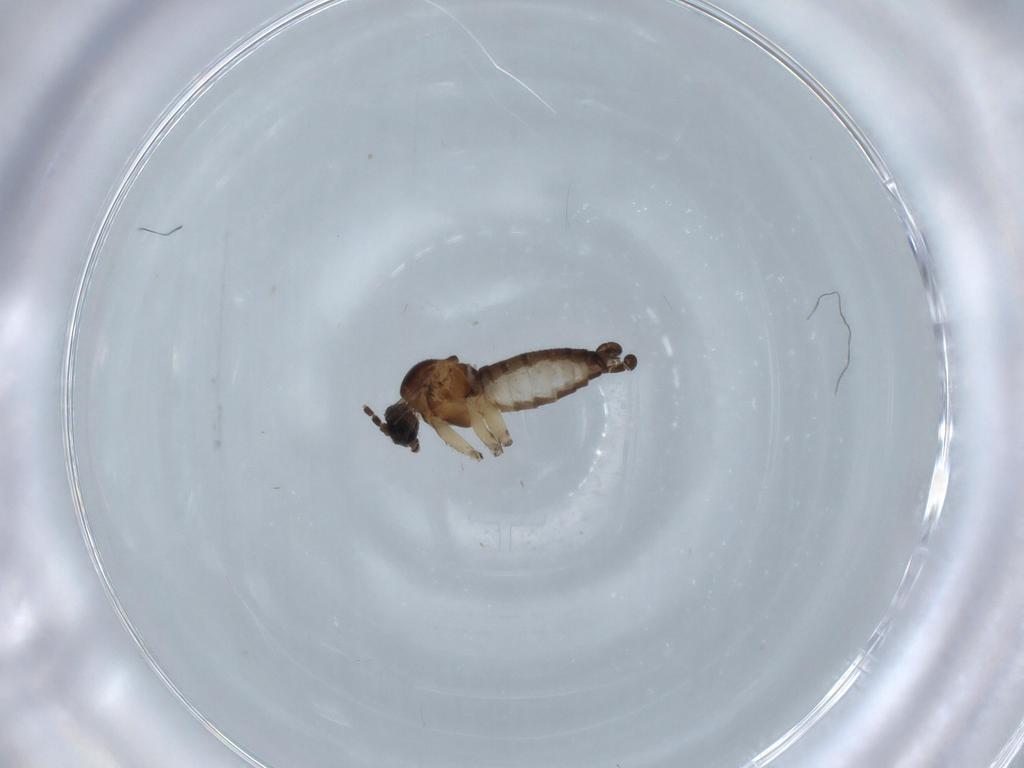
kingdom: Animalia
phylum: Arthropoda
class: Insecta
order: Diptera
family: Sciaridae
